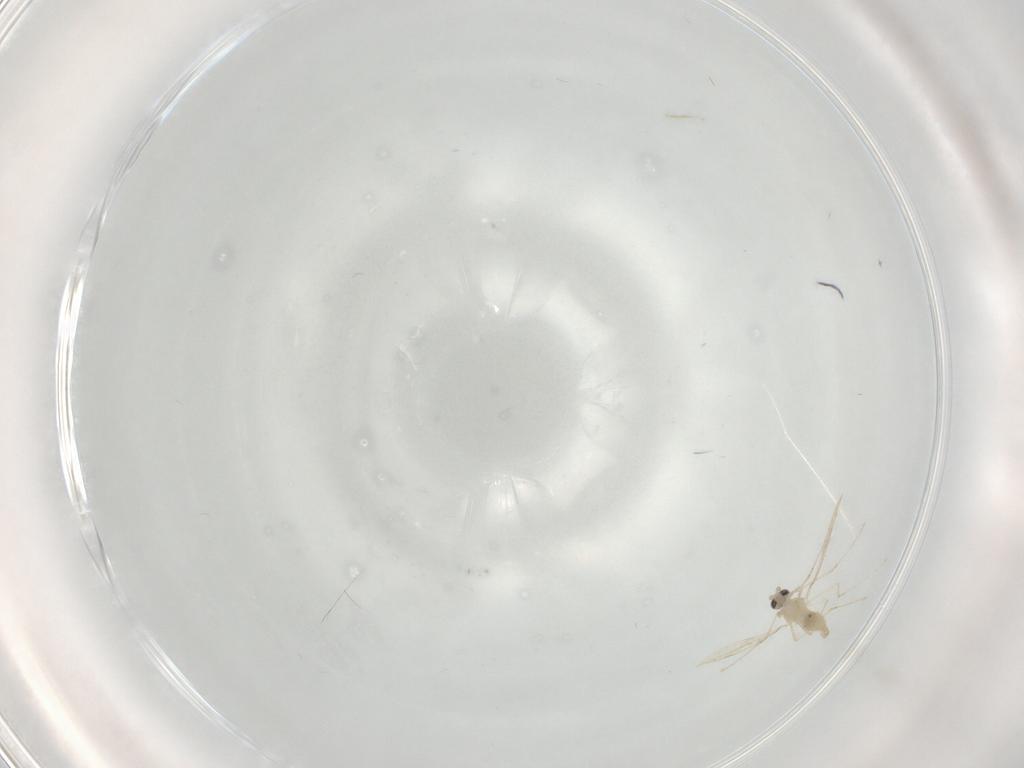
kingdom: Animalia
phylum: Arthropoda
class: Insecta
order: Diptera
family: Cecidomyiidae
